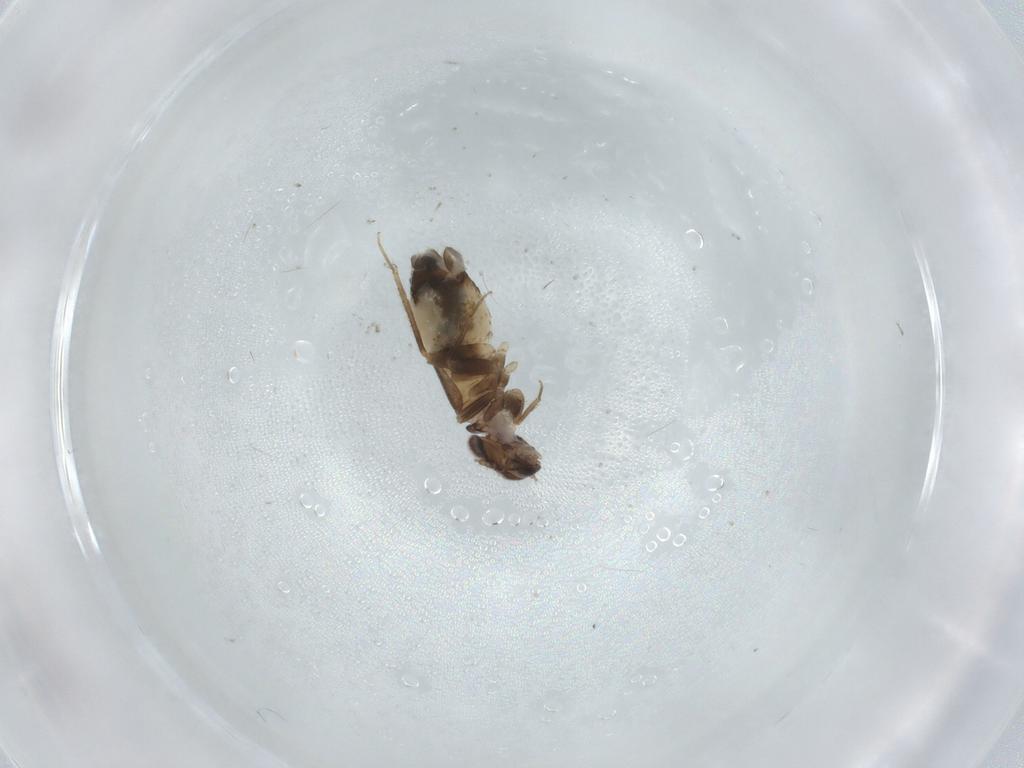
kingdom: Animalia
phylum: Arthropoda
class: Insecta
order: Psocodea
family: Lepidopsocidae
